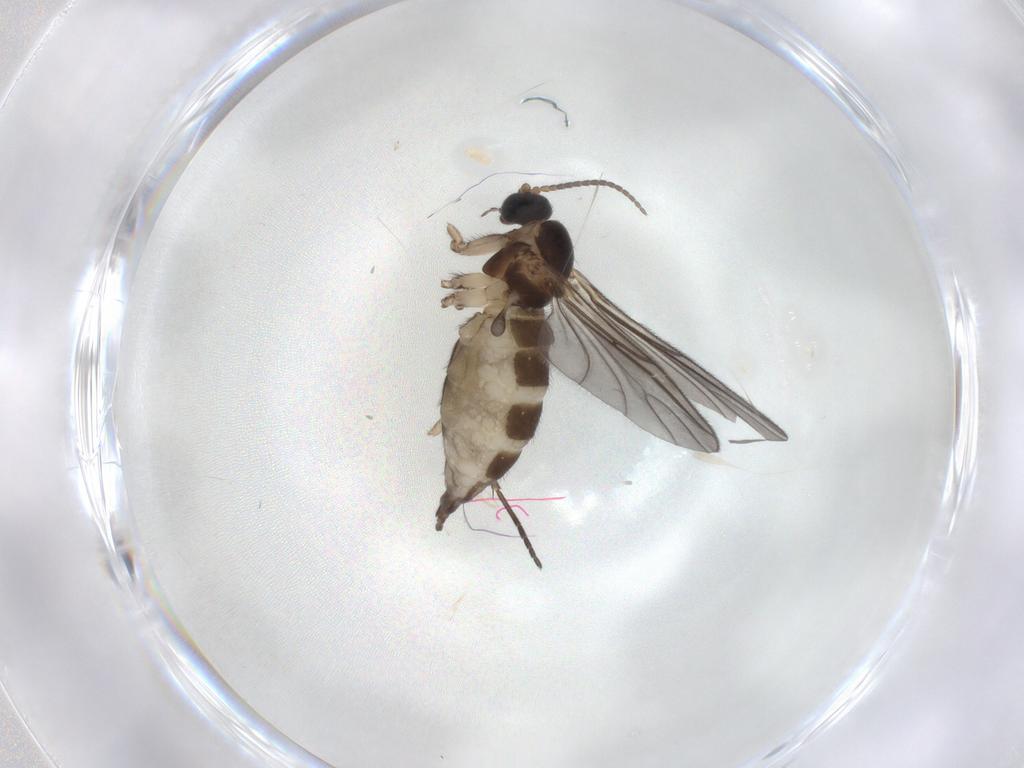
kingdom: Animalia
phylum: Arthropoda
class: Insecta
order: Diptera
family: Sciaridae
